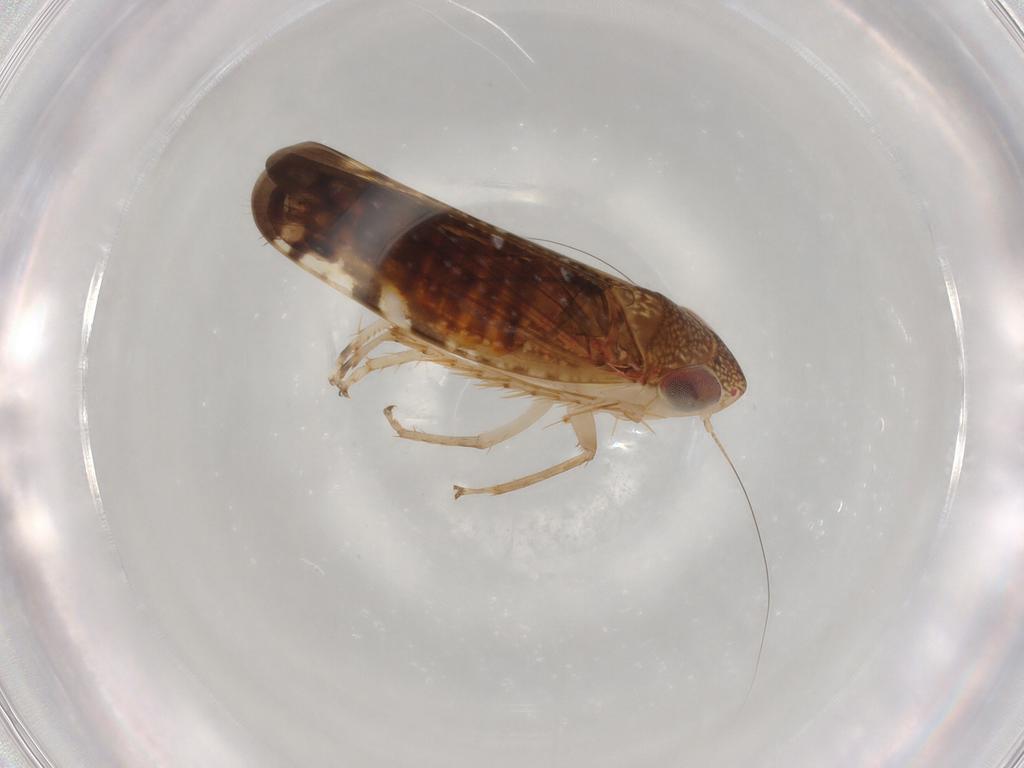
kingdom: Animalia
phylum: Arthropoda
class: Insecta
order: Hemiptera
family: Cicadellidae
